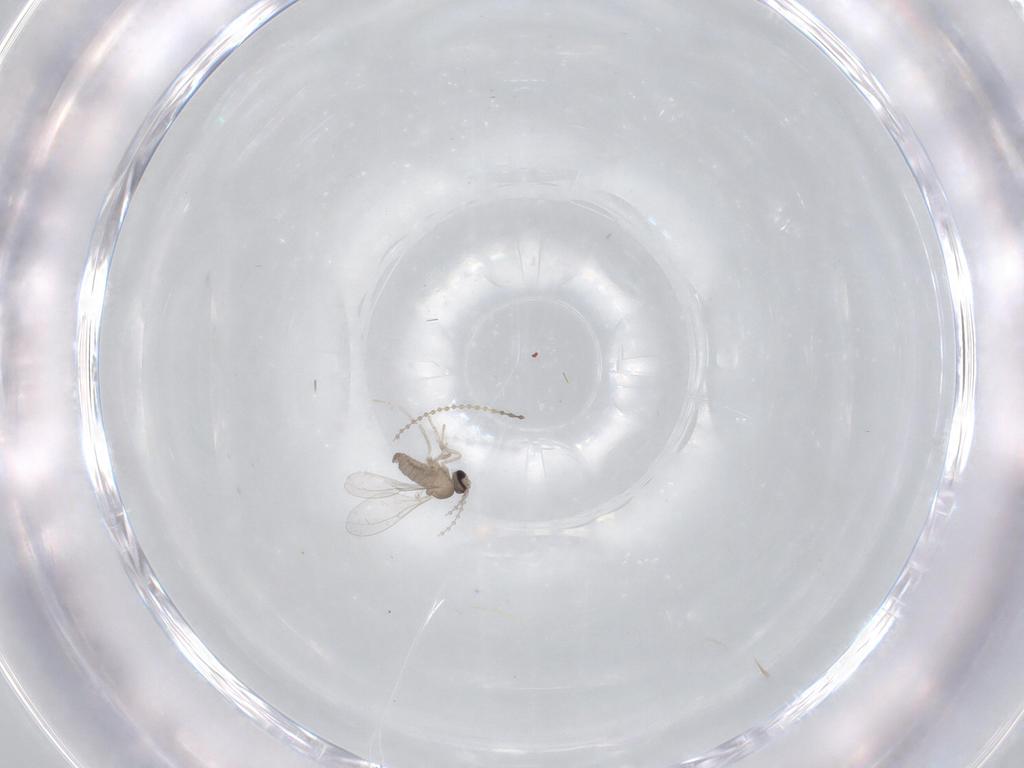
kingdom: Animalia
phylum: Arthropoda
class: Insecta
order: Diptera
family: Cecidomyiidae
